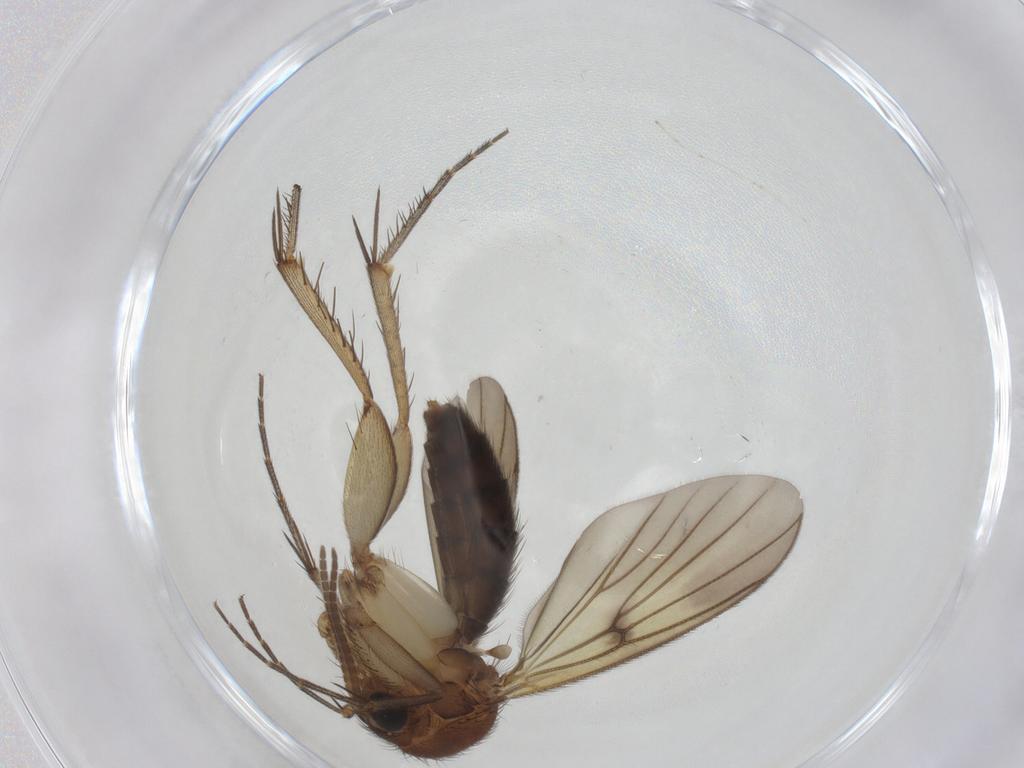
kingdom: Animalia
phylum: Arthropoda
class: Insecta
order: Diptera
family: Mycetophilidae
